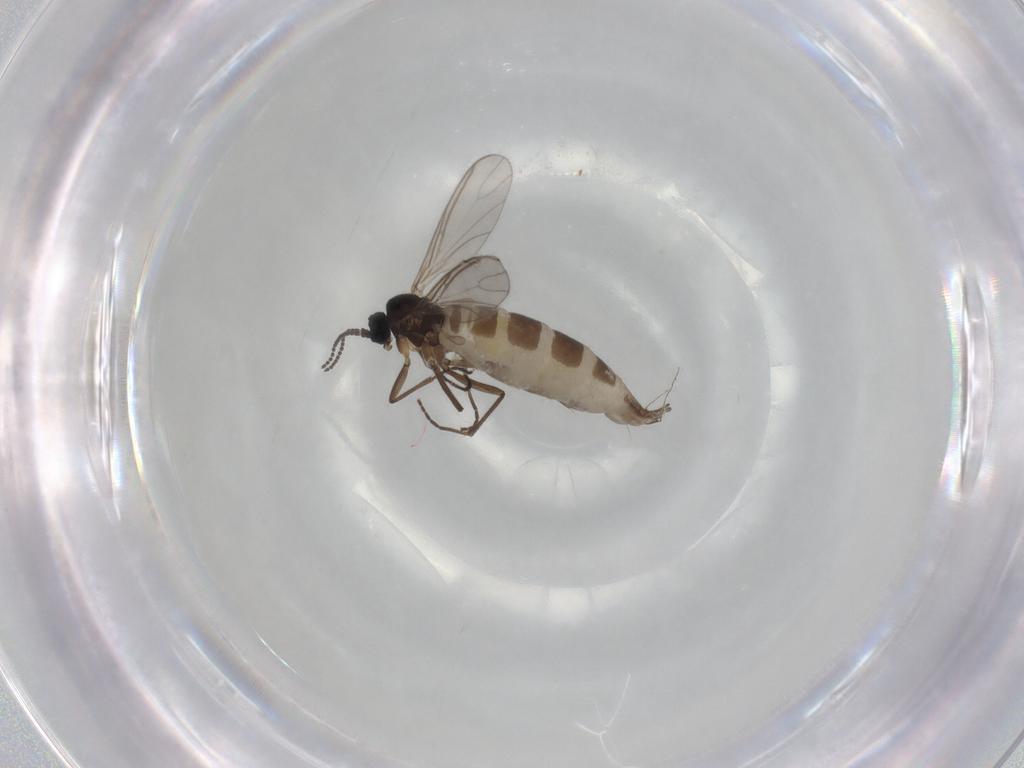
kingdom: Animalia
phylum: Arthropoda
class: Insecta
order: Diptera
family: Sciaridae
